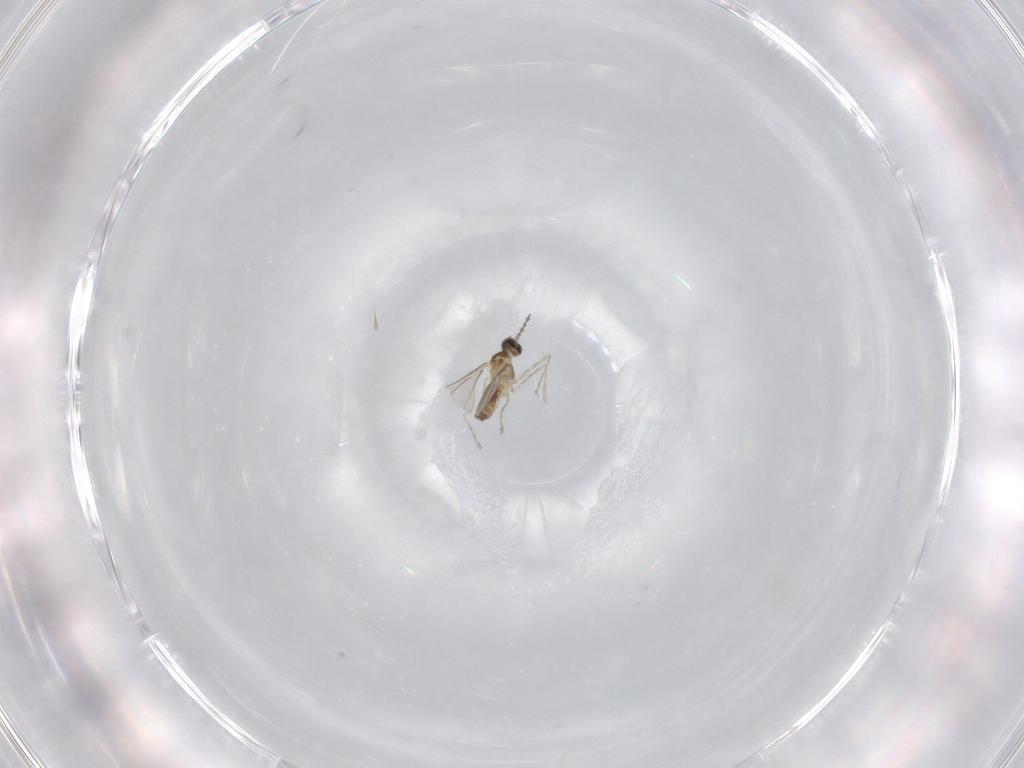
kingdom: Animalia
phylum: Arthropoda
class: Insecta
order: Diptera
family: Cecidomyiidae
